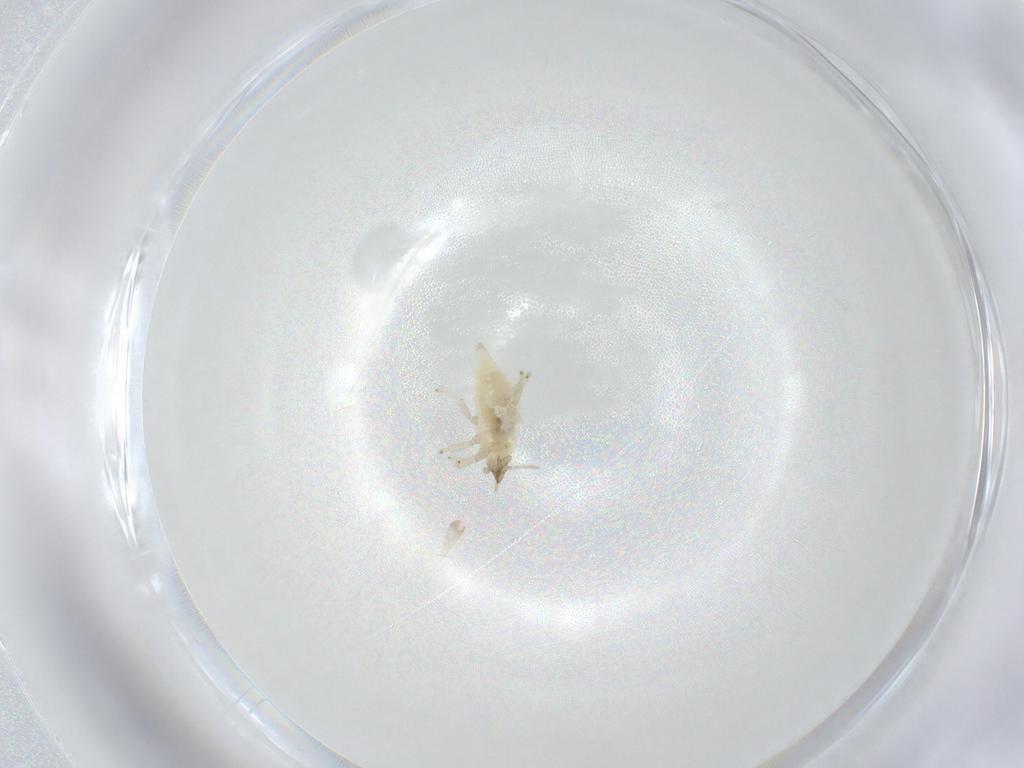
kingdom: Animalia
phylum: Arthropoda
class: Insecta
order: Neuroptera
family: Coniopterygidae
